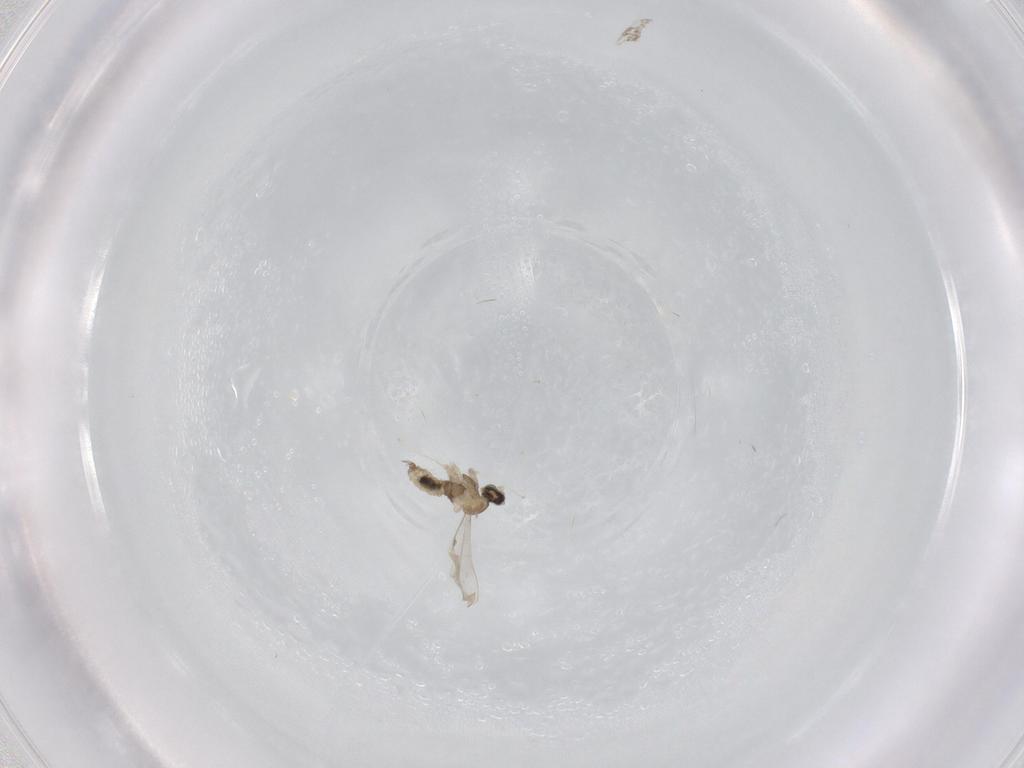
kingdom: Animalia
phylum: Arthropoda
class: Insecta
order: Diptera
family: Cecidomyiidae
